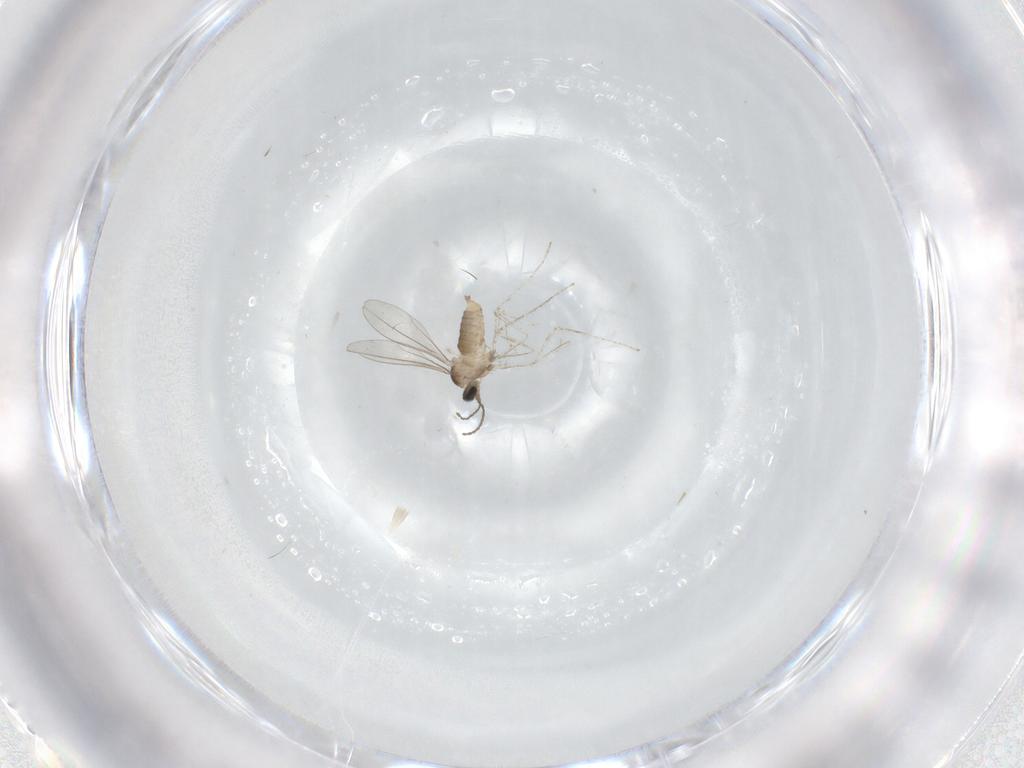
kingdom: Animalia
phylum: Arthropoda
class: Insecta
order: Diptera
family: Cecidomyiidae
